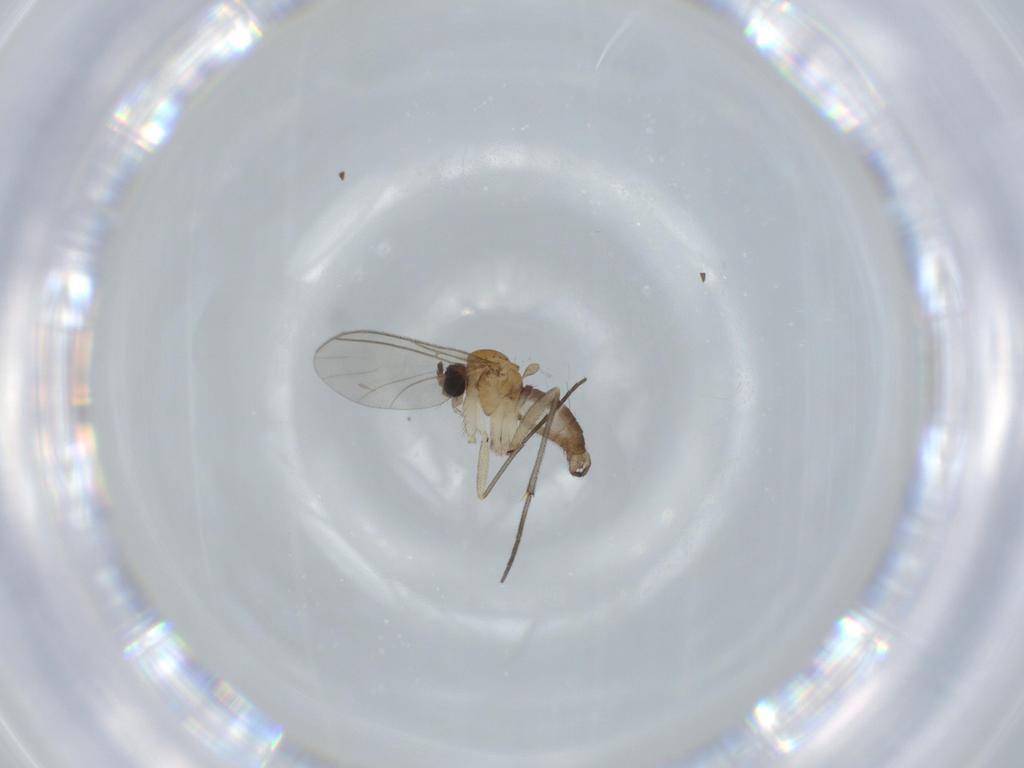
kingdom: Animalia
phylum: Arthropoda
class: Insecta
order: Diptera
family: Sciaridae
